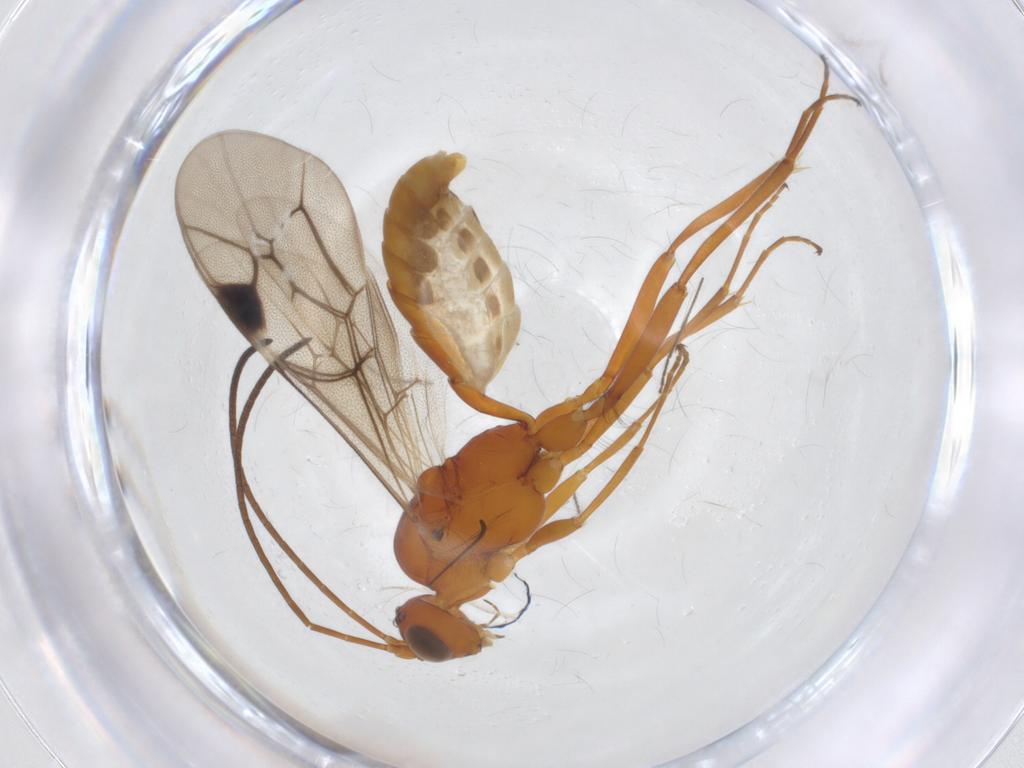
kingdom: Animalia
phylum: Arthropoda
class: Insecta
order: Hymenoptera
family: Ichneumonidae
